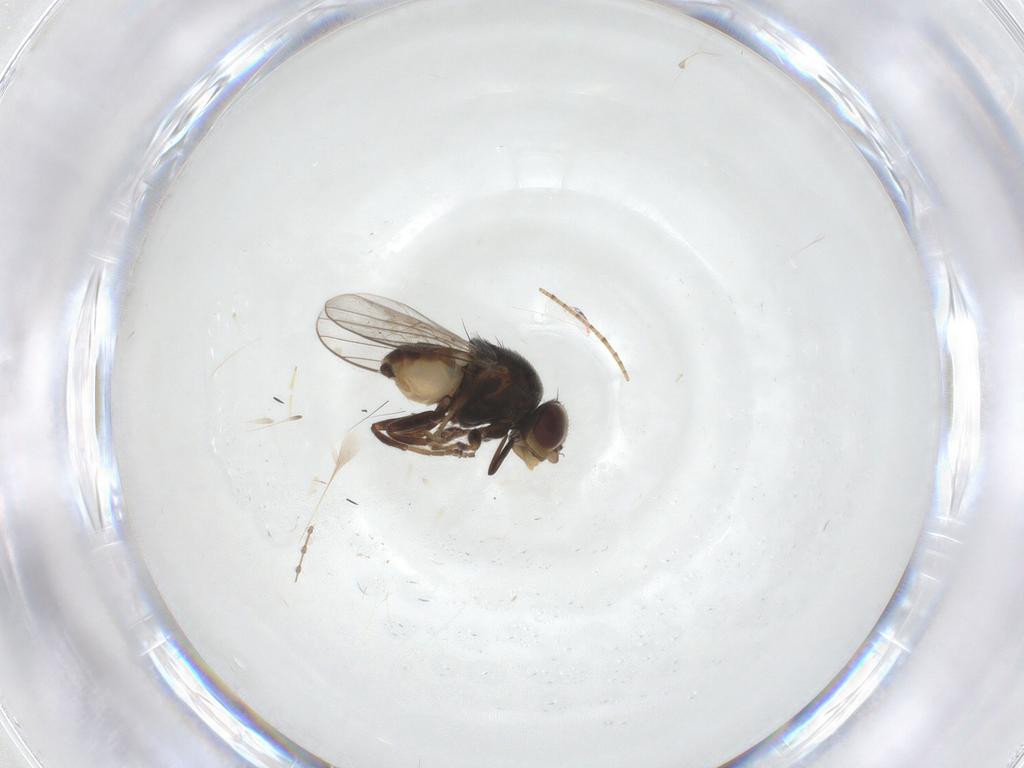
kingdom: Animalia
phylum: Arthropoda
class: Insecta
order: Diptera
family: Chloropidae
